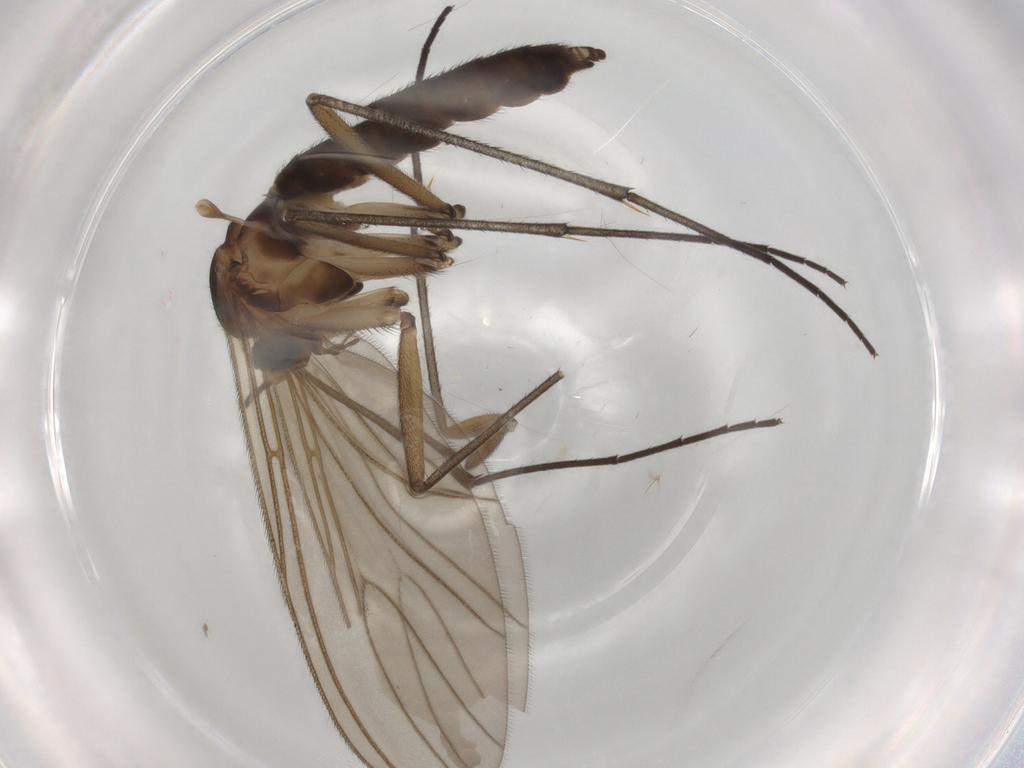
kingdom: Animalia
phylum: Arthropoda
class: Insecta
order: Diptera
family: Sciaridae
